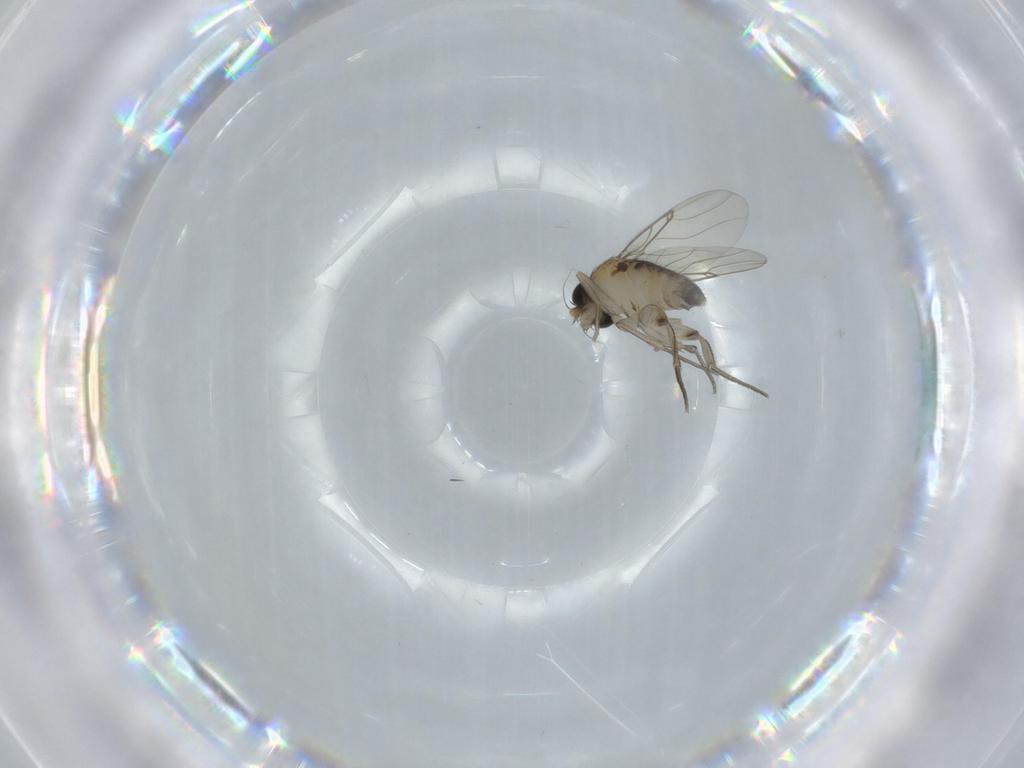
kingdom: Animalia
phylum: Arthropoda
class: Insecta
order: Diptera
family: Phoridae
